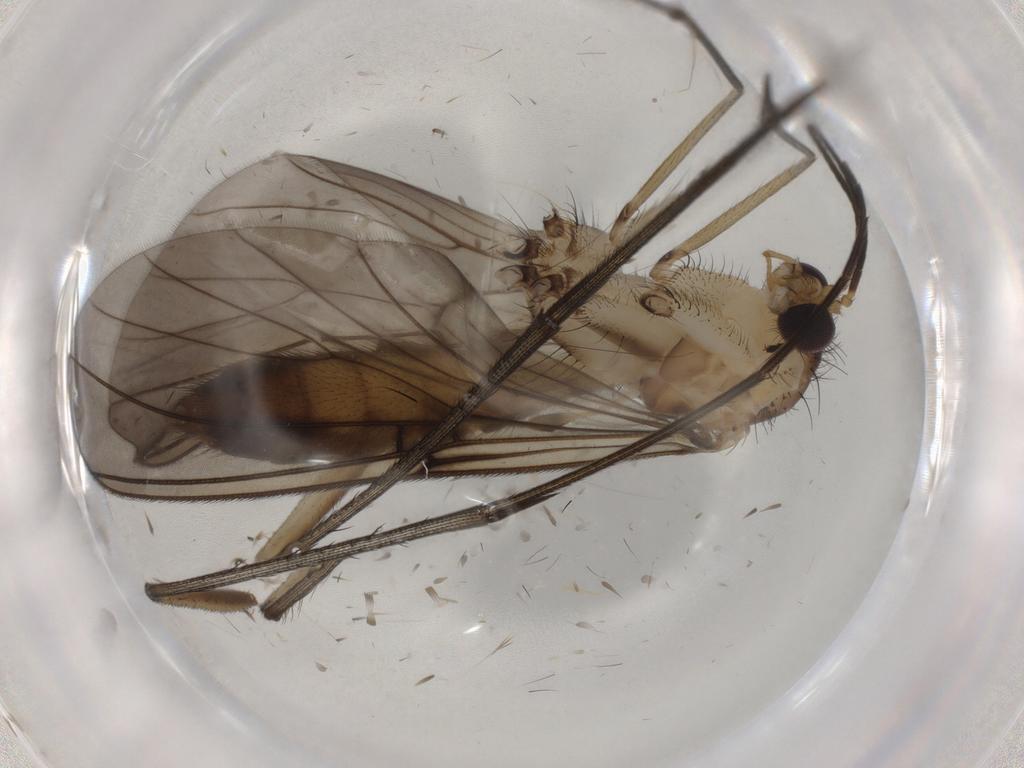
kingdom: Animalia
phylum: Arthropoda
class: Insecta
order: Diptera
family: Mycetophilidae
